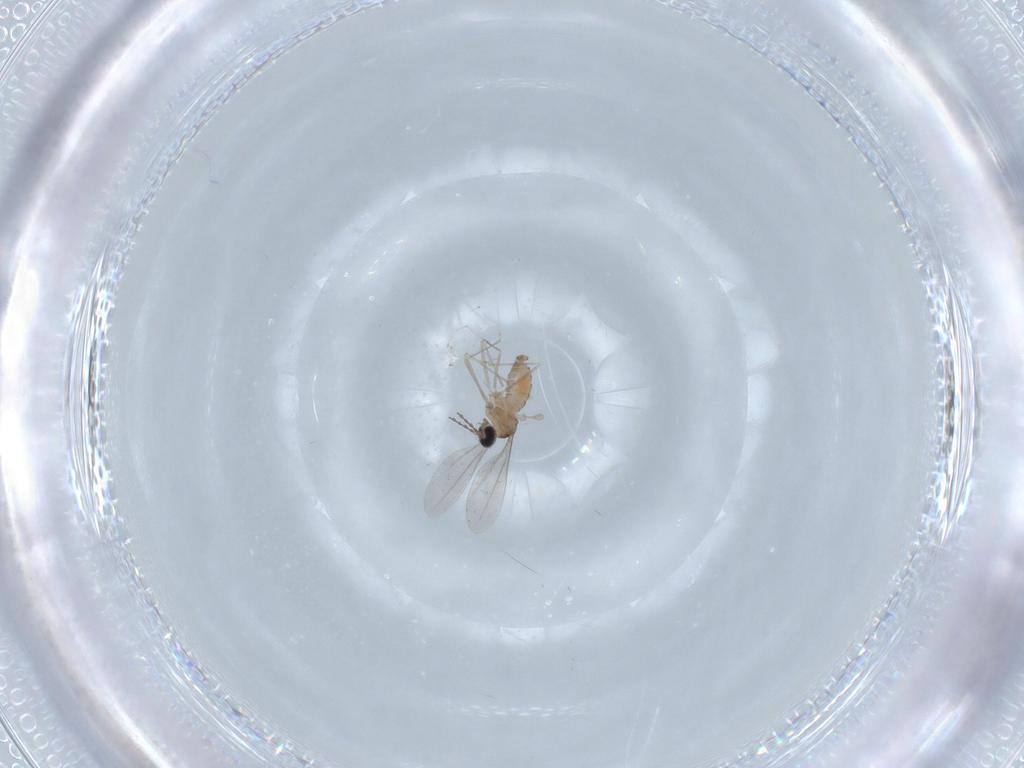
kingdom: Animalia
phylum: Arthropoda
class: Insecta
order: Diptera
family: Cecidomyiidae
